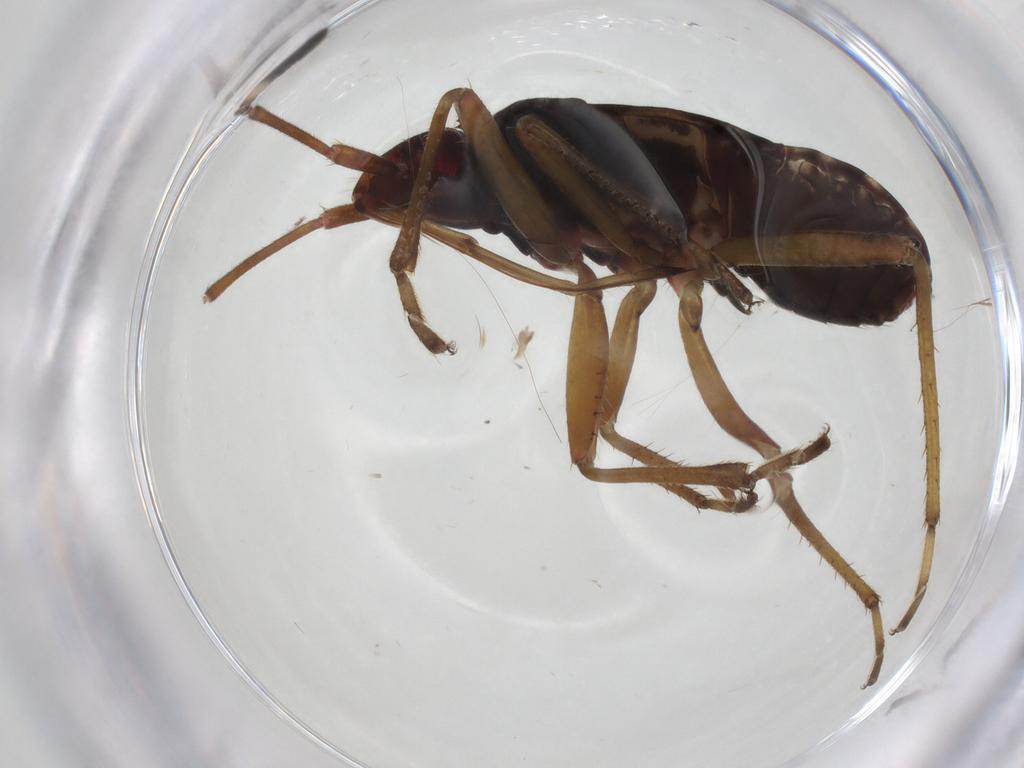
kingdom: Animalia
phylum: Arthropoda
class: Insecta
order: Hemiptera
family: Rhyparochromidae
